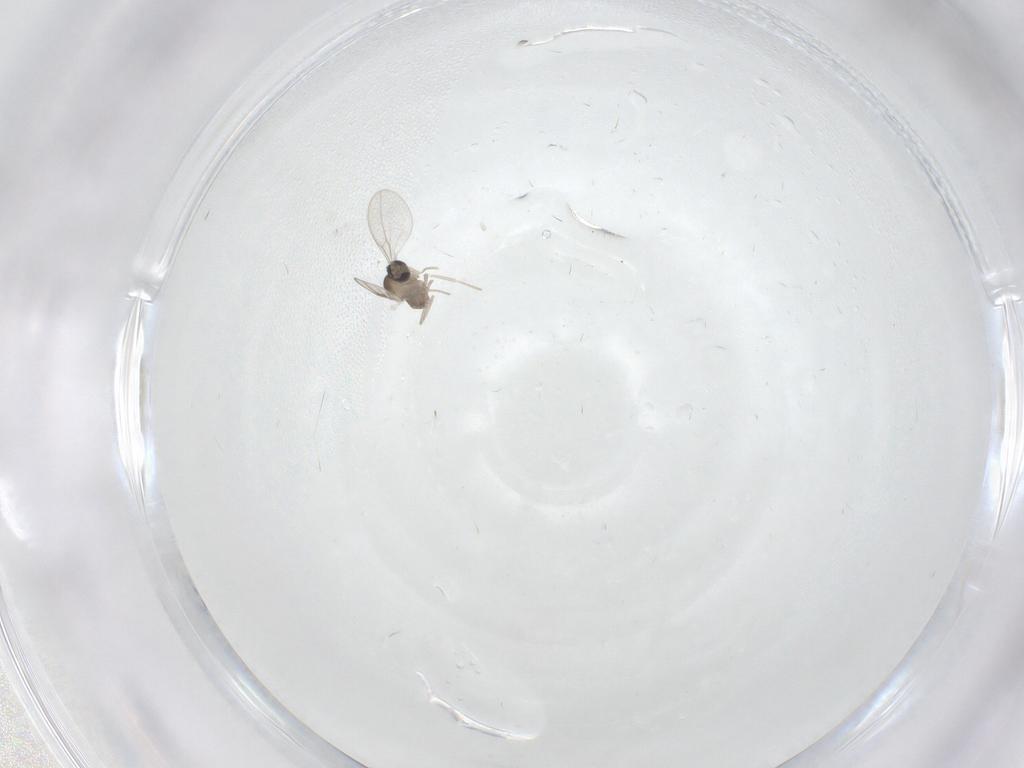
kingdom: Animalia
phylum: Arthropoda
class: Insecta
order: Diptera
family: Cecidomyiidae
